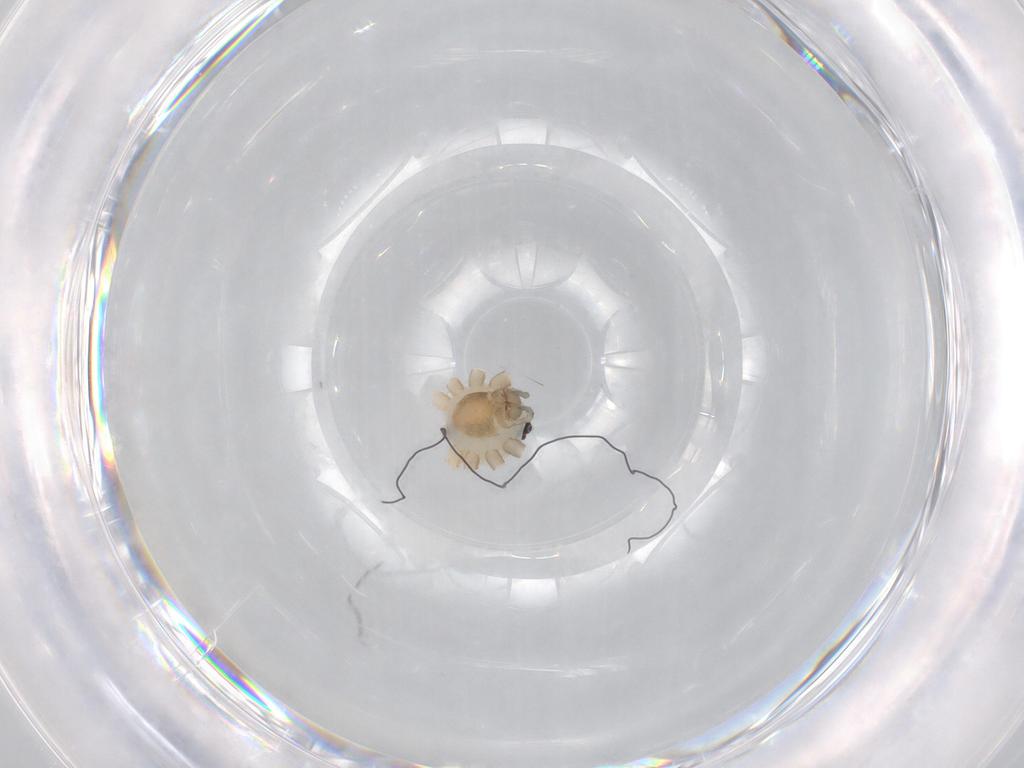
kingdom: Animalia
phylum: Arthropoda
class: Arachnida
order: Araneae
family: Pholcidae
